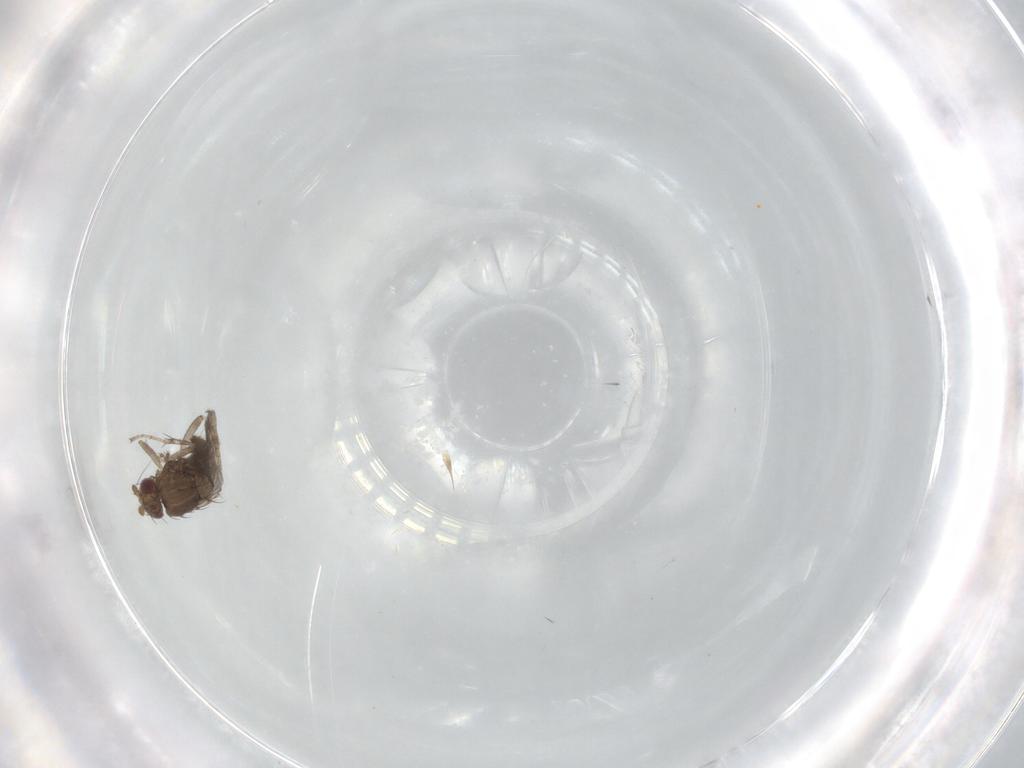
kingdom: Animalia
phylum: Arthropoda
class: Insecta
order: Diptera
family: Sphaeroceridae
